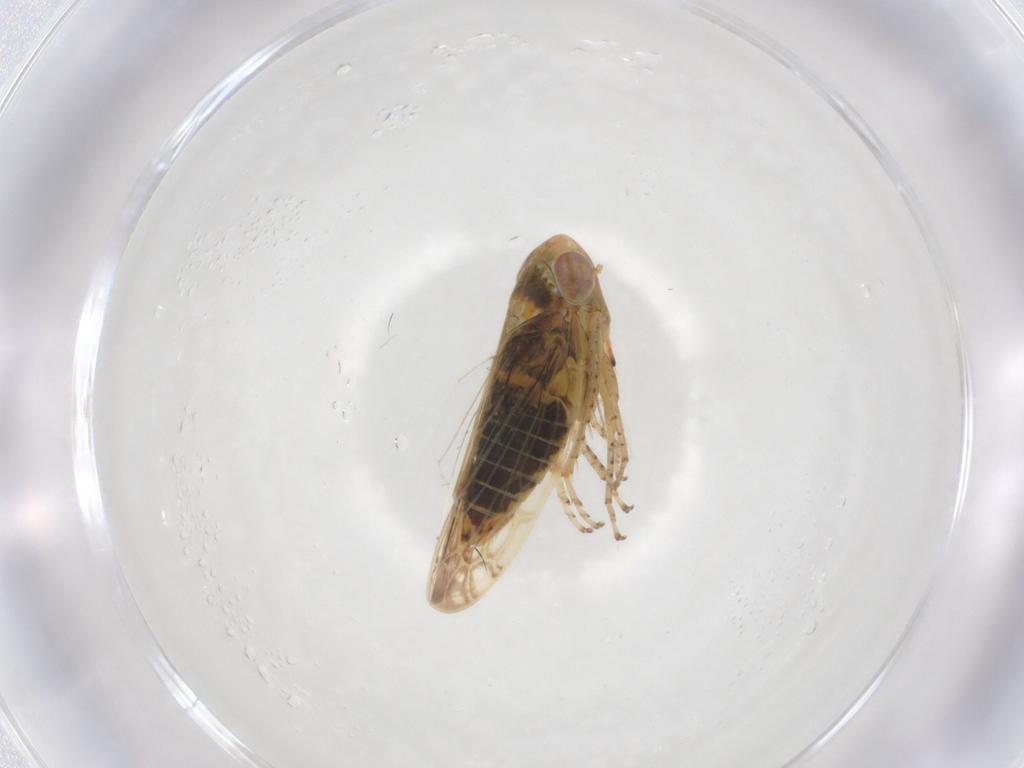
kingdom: Animalia
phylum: Arthropoda
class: Insecta
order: Hemiptera
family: Cicadellidae
